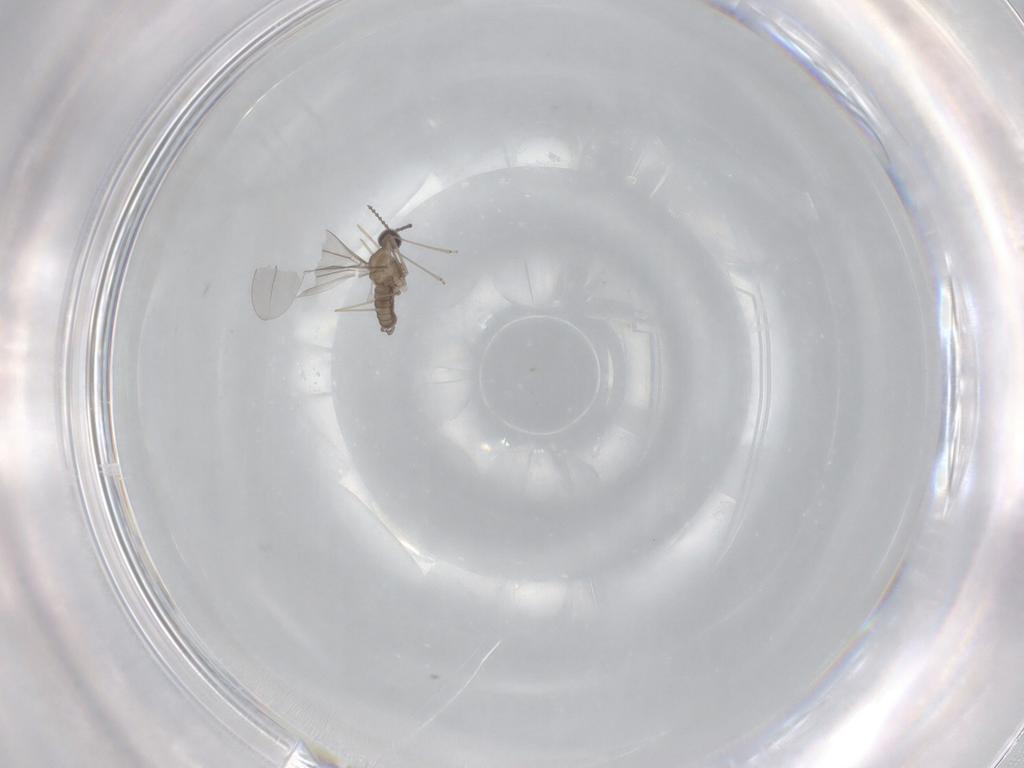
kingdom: Animalia
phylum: Arthropoda
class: Insecta
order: Diptera
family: Cecidomyiidae
